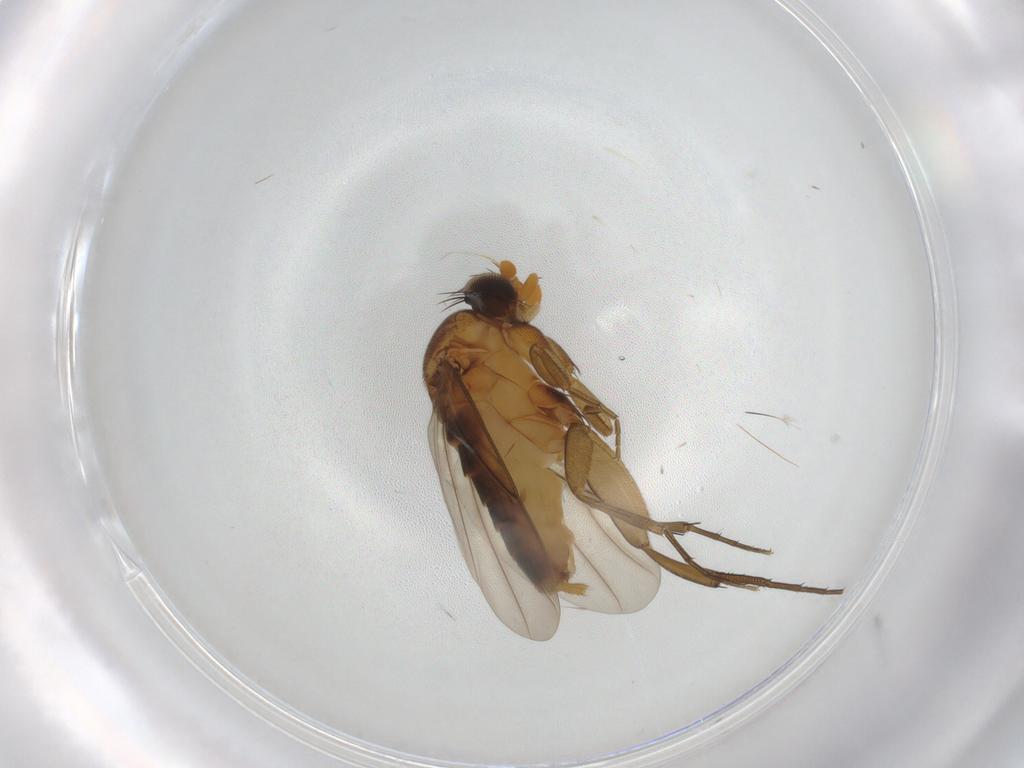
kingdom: Animalia
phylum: Arthropoda
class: Insecta
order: Diptera
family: Phoridae
